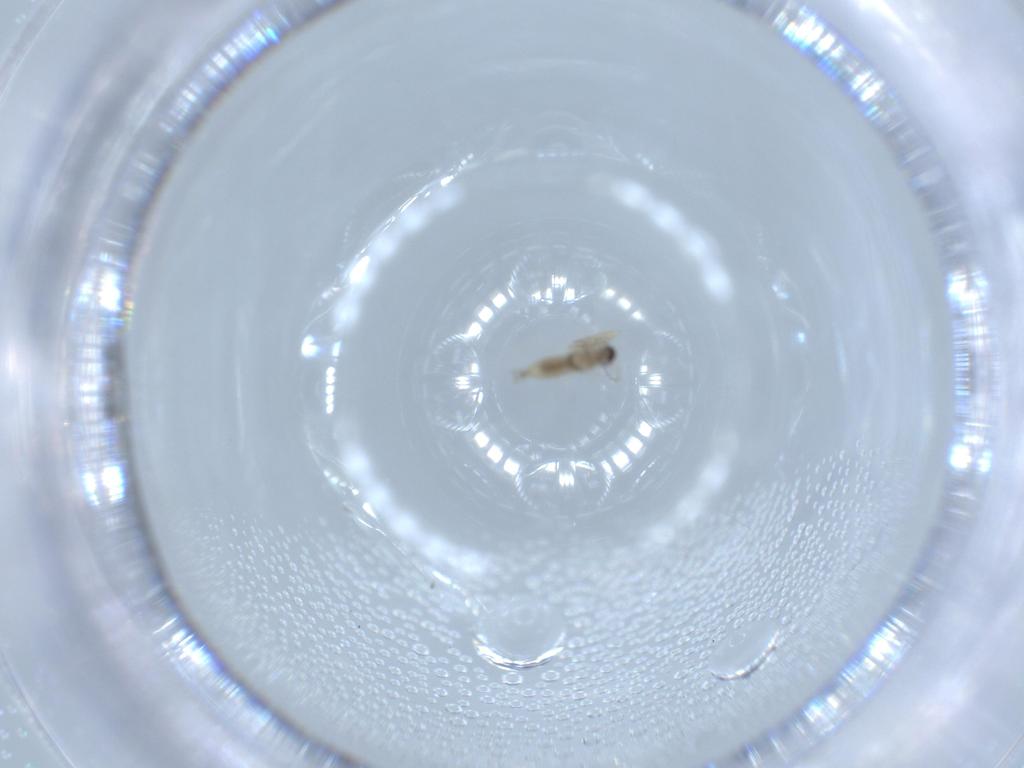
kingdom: Animalia
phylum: Arthropoda
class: Insecta
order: Diptera
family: Cecidomyiidae
